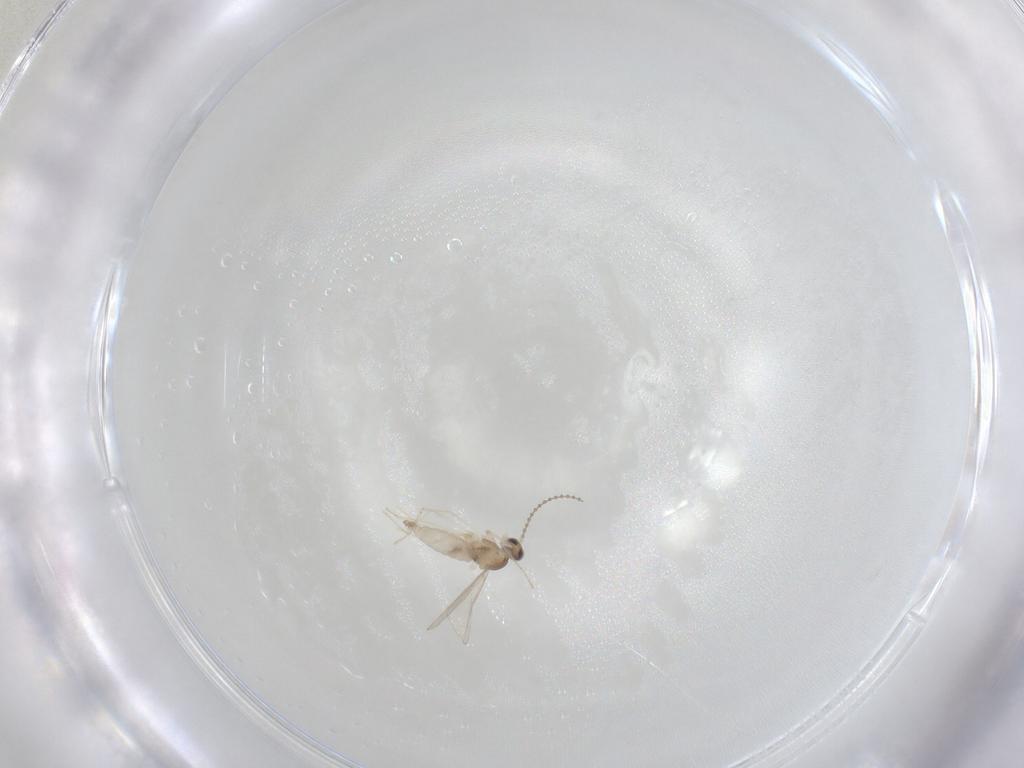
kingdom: Animalia
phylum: Arthropoda
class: Insecta
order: Diptera
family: Cecidomyiidae
